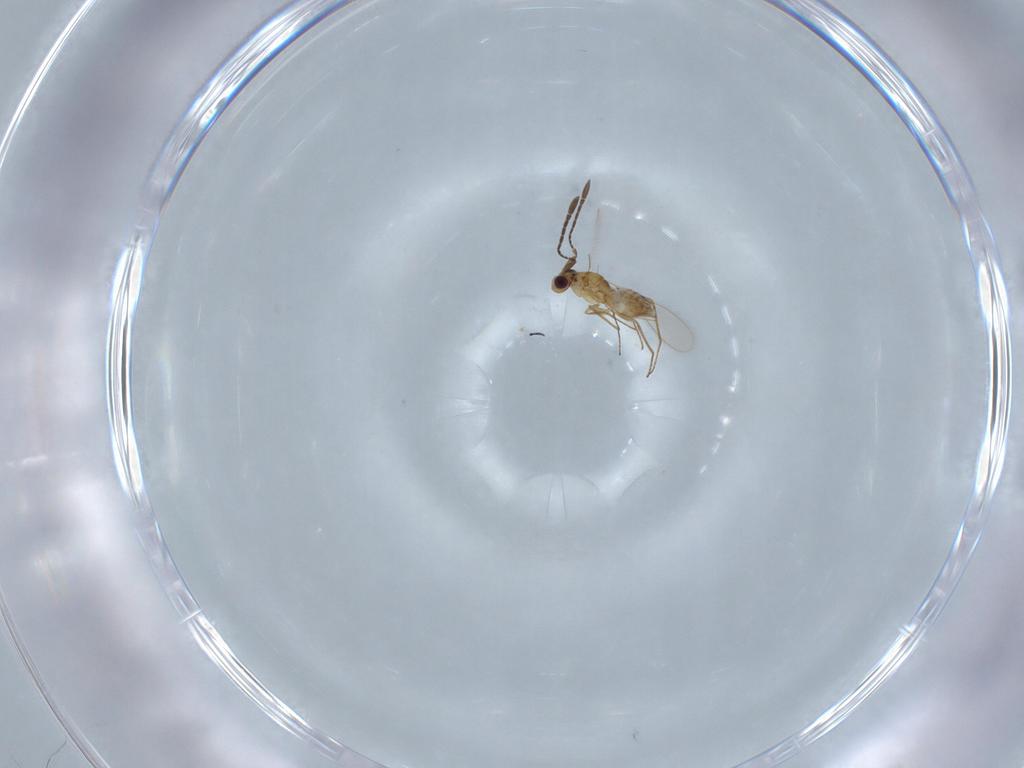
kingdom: Animalia
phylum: Arthropoda
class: Insecta
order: Hymenoptera
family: Mymaridae
